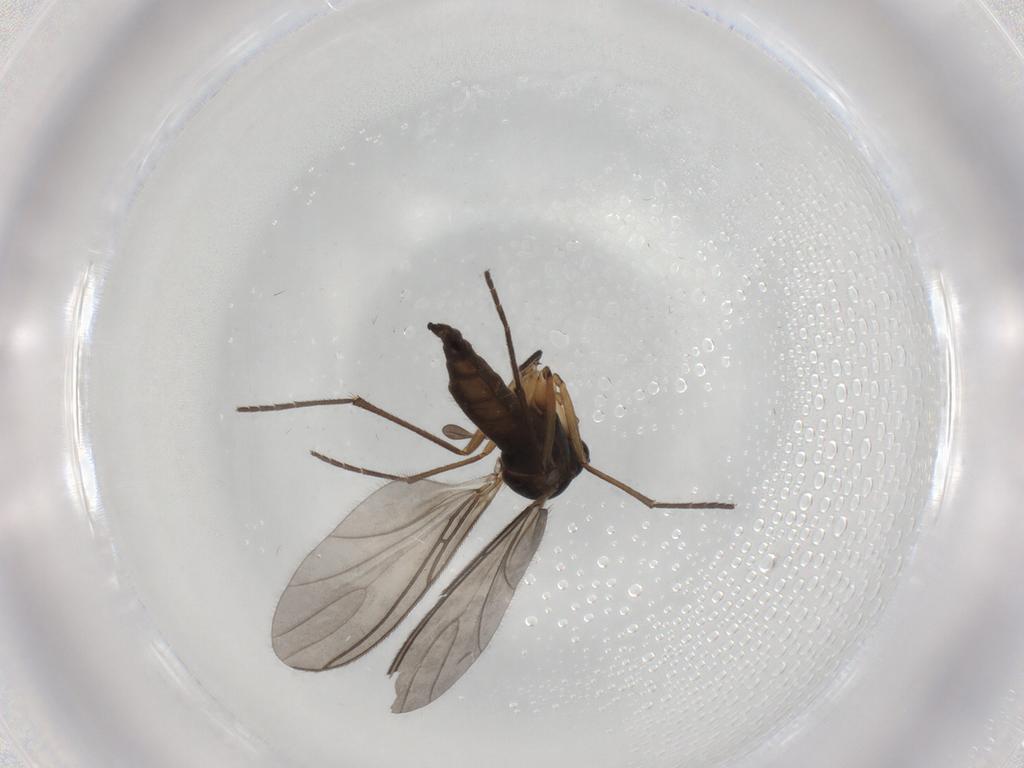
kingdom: Animalia
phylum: Arthropoda
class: Insecta
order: Diptera
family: Sciaridae
